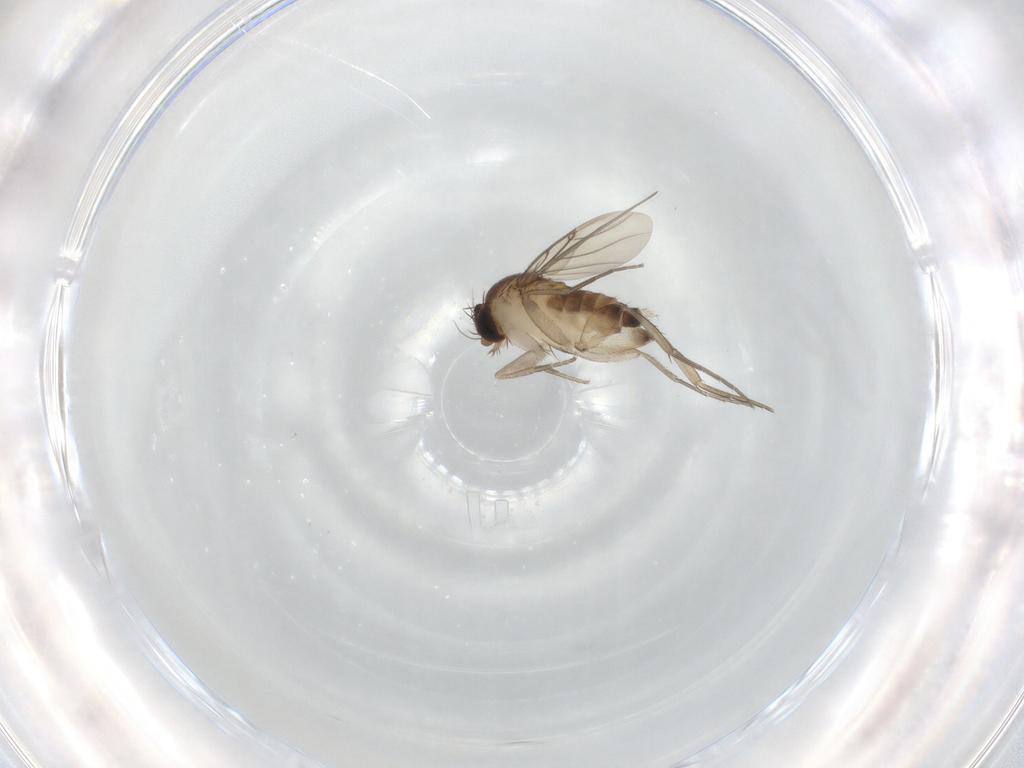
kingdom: Animalia
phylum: Arthropoda
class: Insecta
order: Diptera
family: Phoridae
